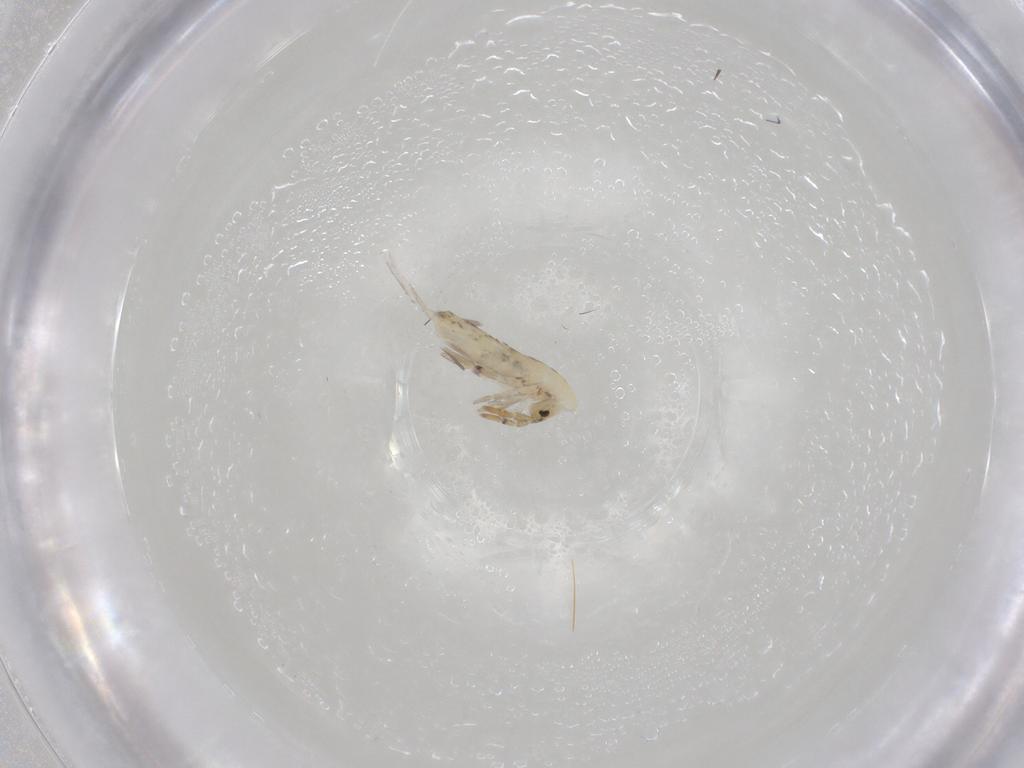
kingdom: Animalia
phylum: Arthropoda
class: Collembola
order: Entomobryomorpha
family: Entomobryidae
